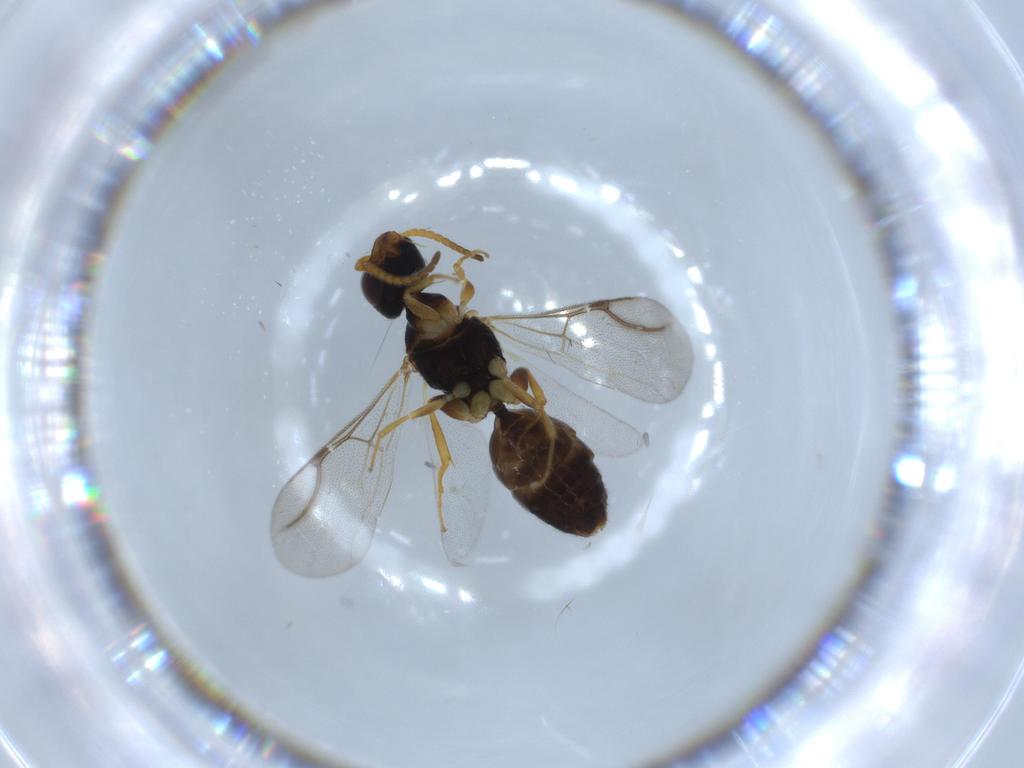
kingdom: Animalia
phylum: Arthropoda
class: Insecta
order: Hymenoptera
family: Bethylidae
